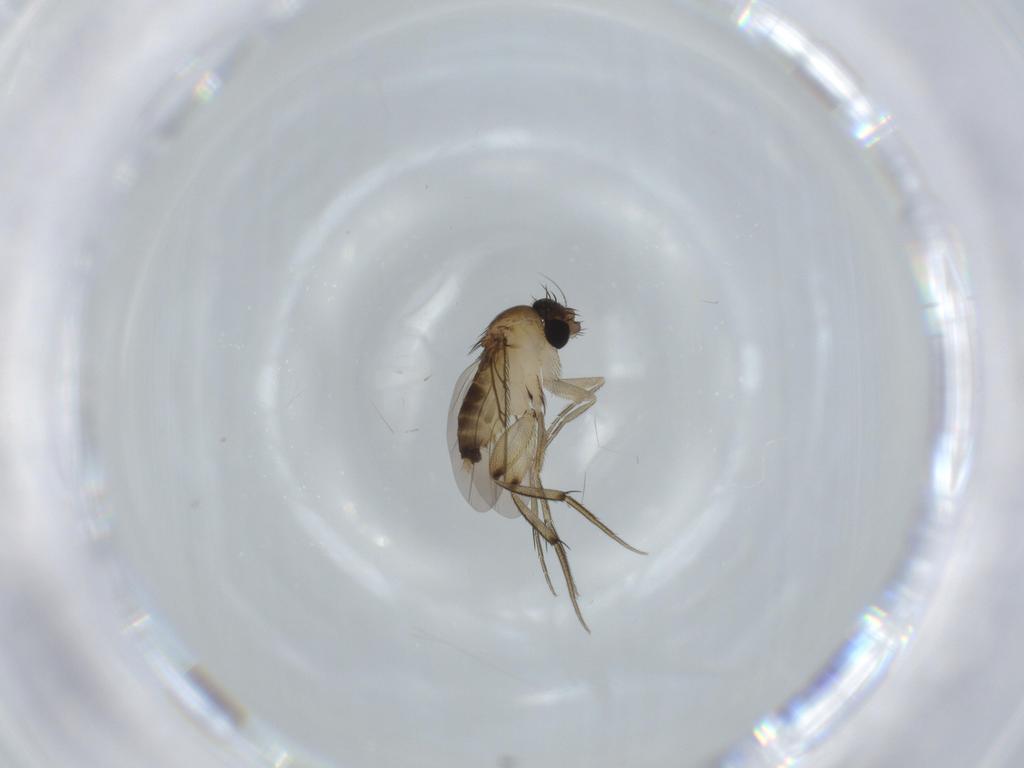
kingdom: Animalia
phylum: Arthropoda
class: Insecta
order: Diptera
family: Phoridae
